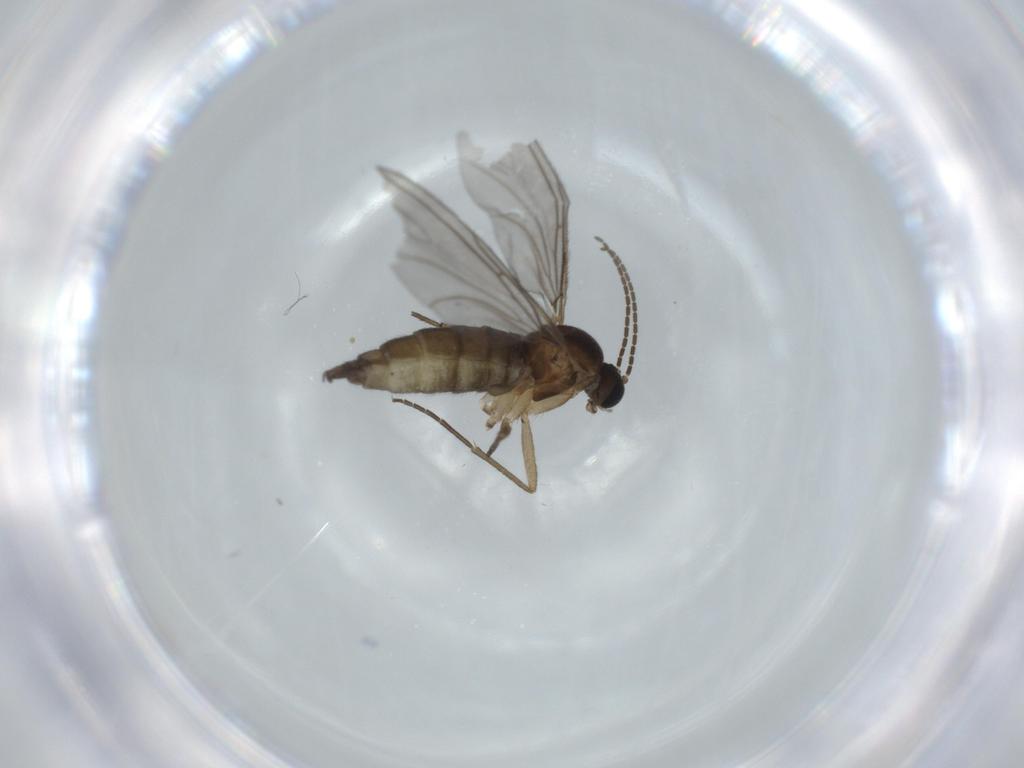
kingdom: Animalia
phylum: Arthropoda
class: Insecta
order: Diptera
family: Sciaridae
